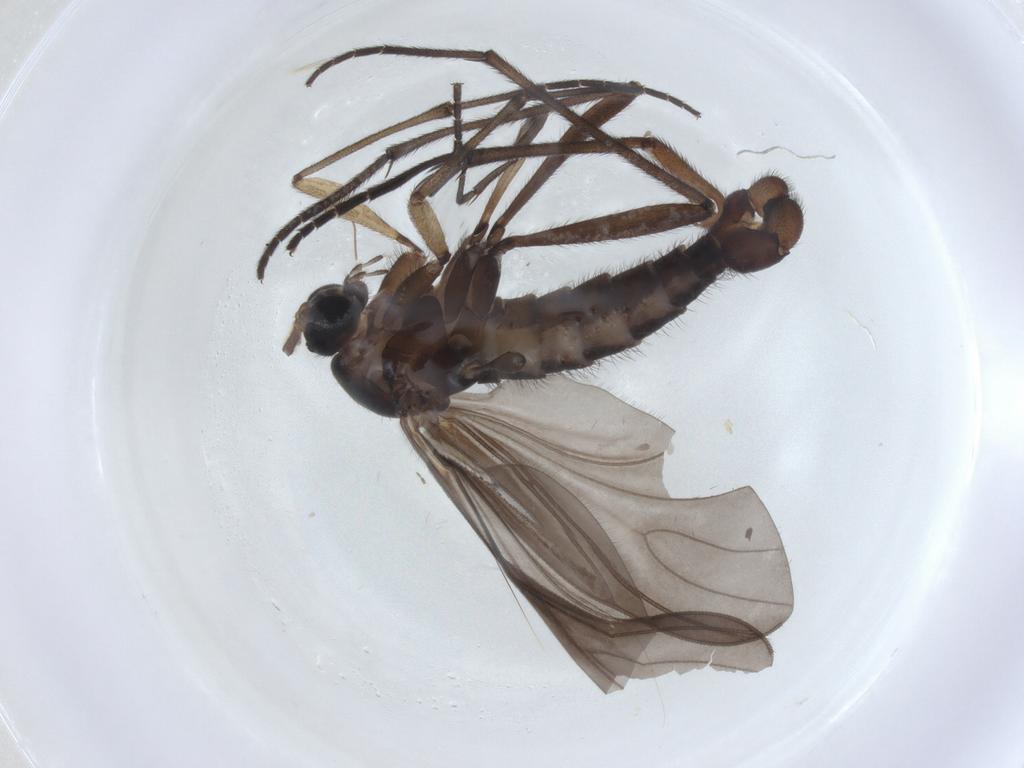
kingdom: Animalia
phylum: Arthropoda
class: Insecta
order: Diptera
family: Sciaridae
